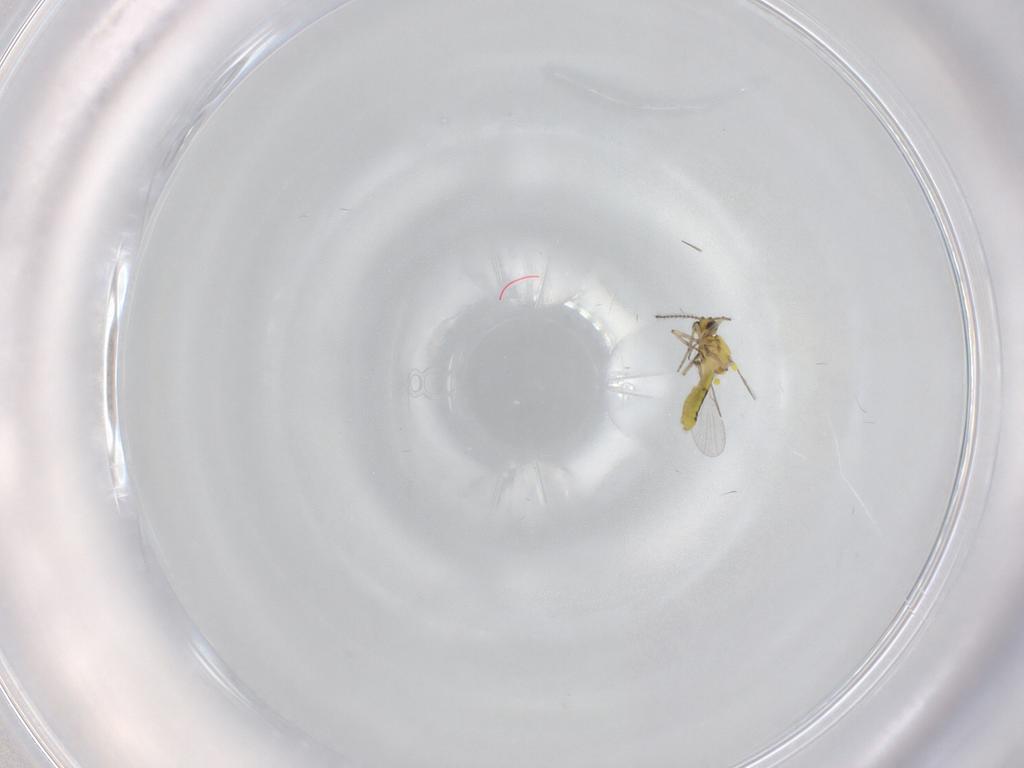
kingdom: Animalia
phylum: Arthropoda
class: Insecta
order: Diptera
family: Ceratopogonidae
